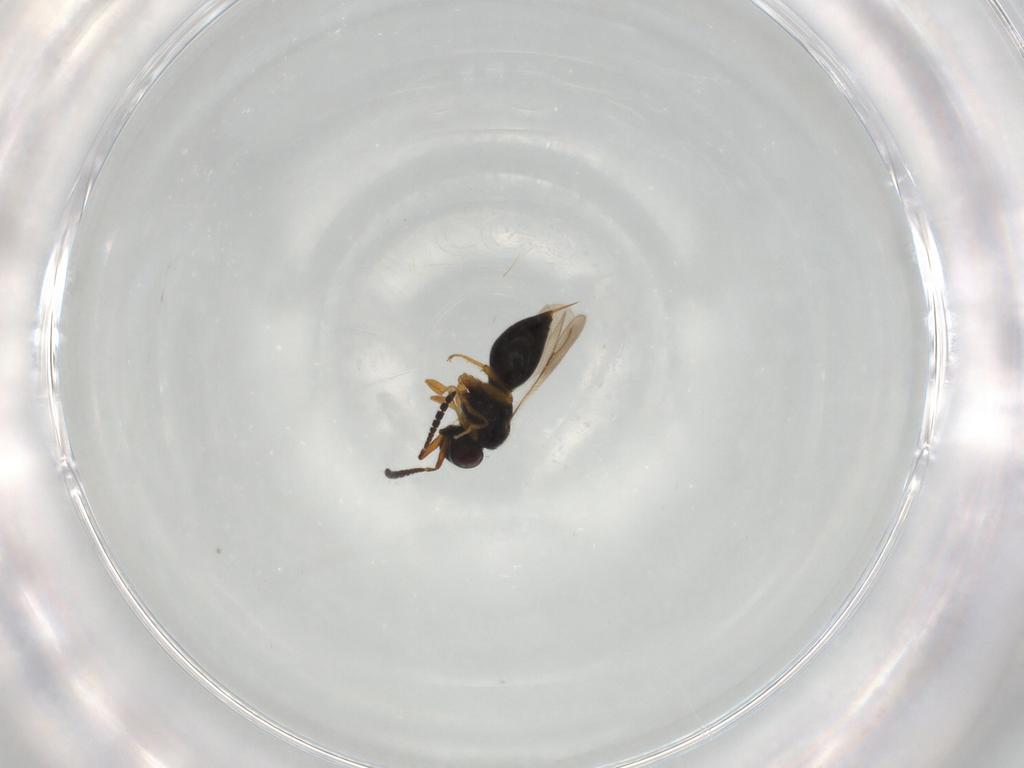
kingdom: Animalia
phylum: Arthropoda
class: Insecta
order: Hymenoptera
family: Ceraphronidae
